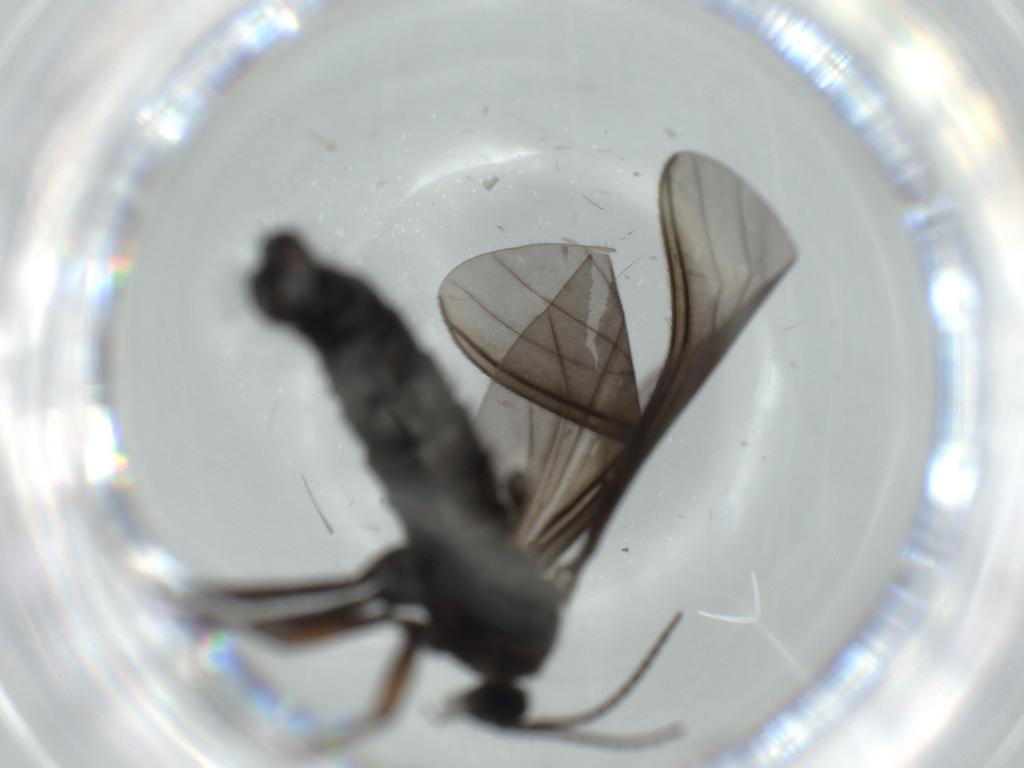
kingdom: Animalia
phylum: Arthropoda
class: Insecta
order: Diptera
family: Sciaridae
